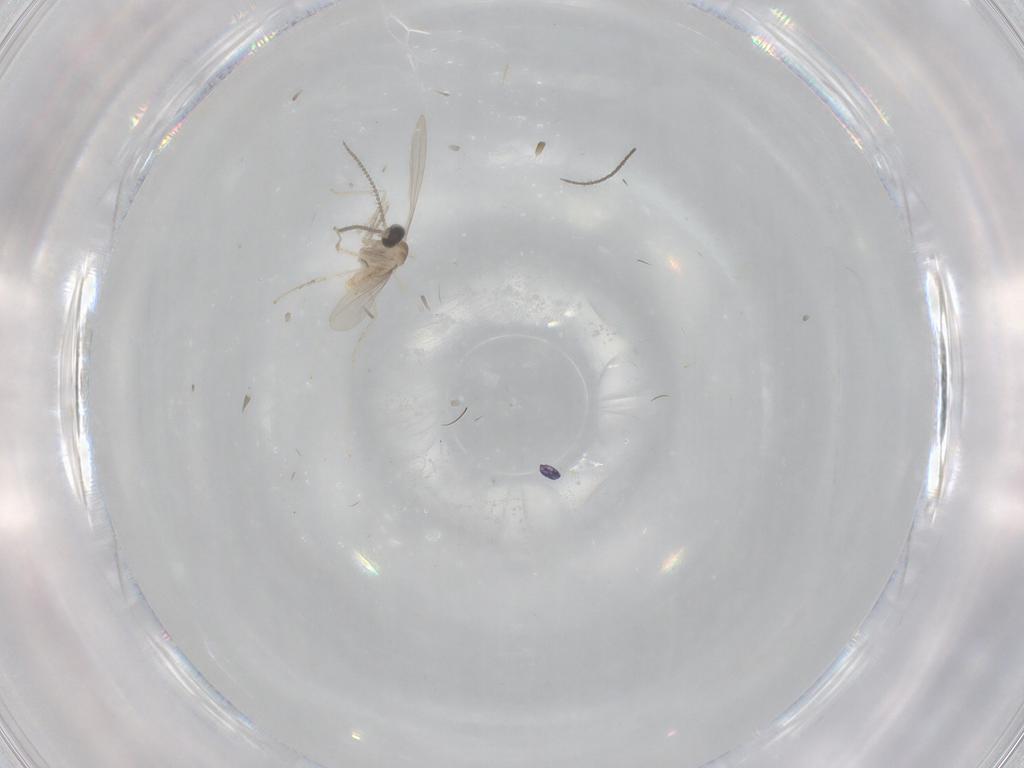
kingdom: Animalia
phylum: Arthropoda
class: Insecta
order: Diptera
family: Cecidomyiidae
